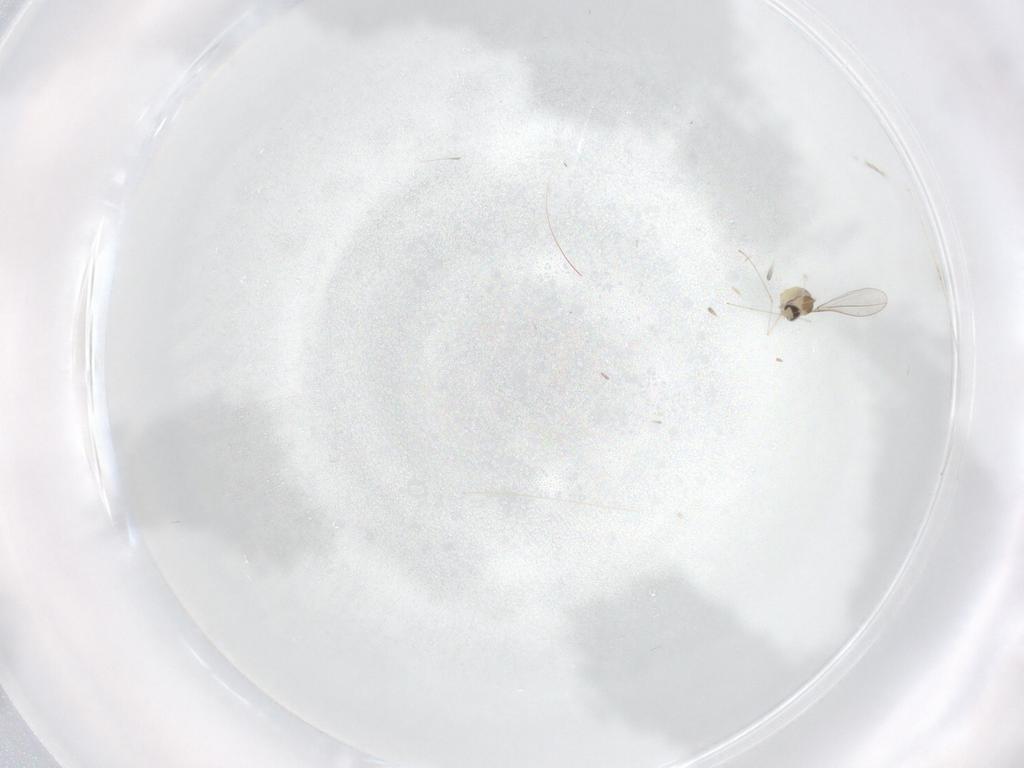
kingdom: Animalia
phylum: Arthropoda
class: Insecta
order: Diptera
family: Cecidomyiidae
